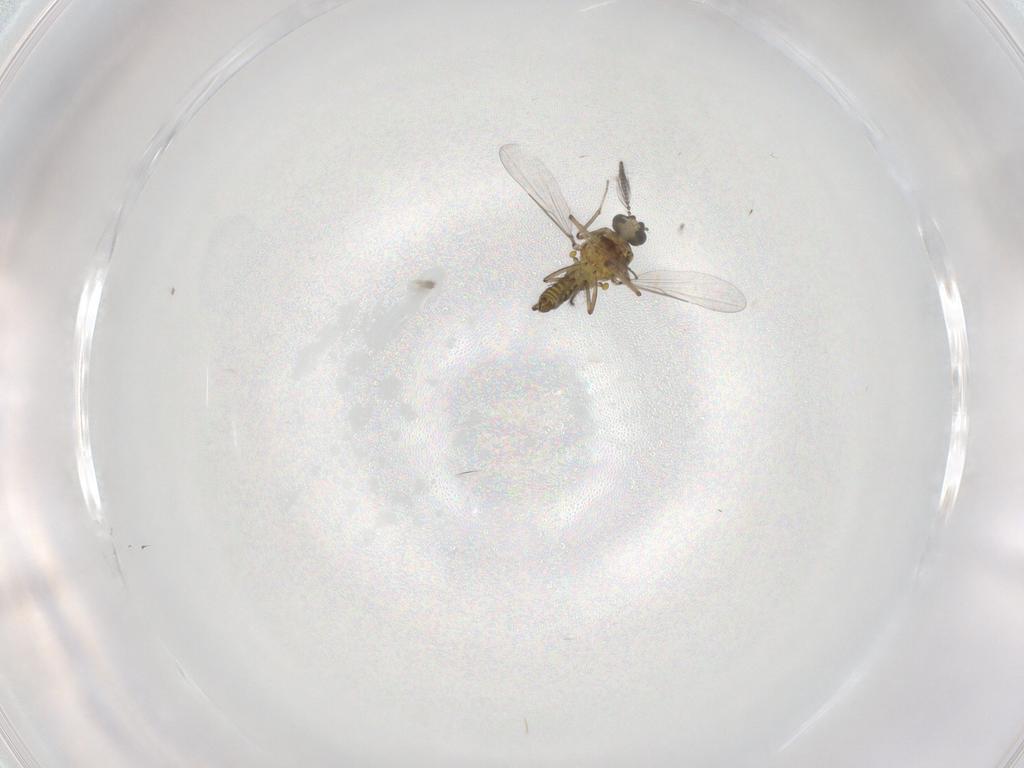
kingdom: Animalia
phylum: Arthropoda
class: Insecta
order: Diptera
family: Ceratopogonidae
